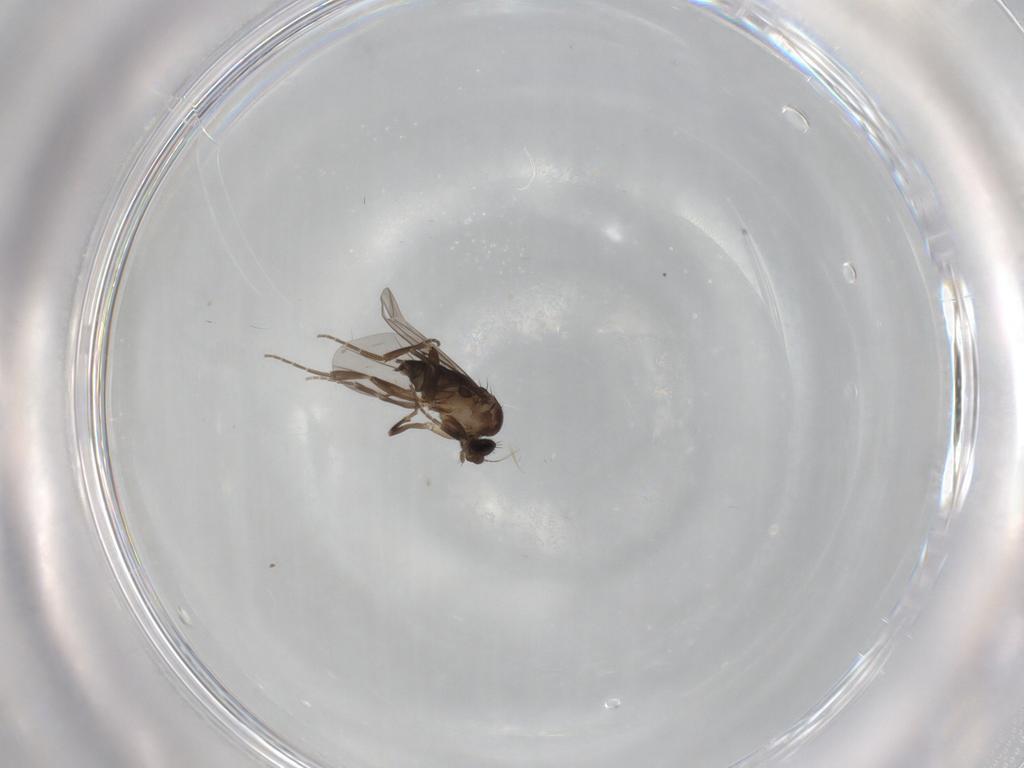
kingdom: Animalia
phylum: Arthropoda
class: Insecta
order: Diptera
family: Phoridae
